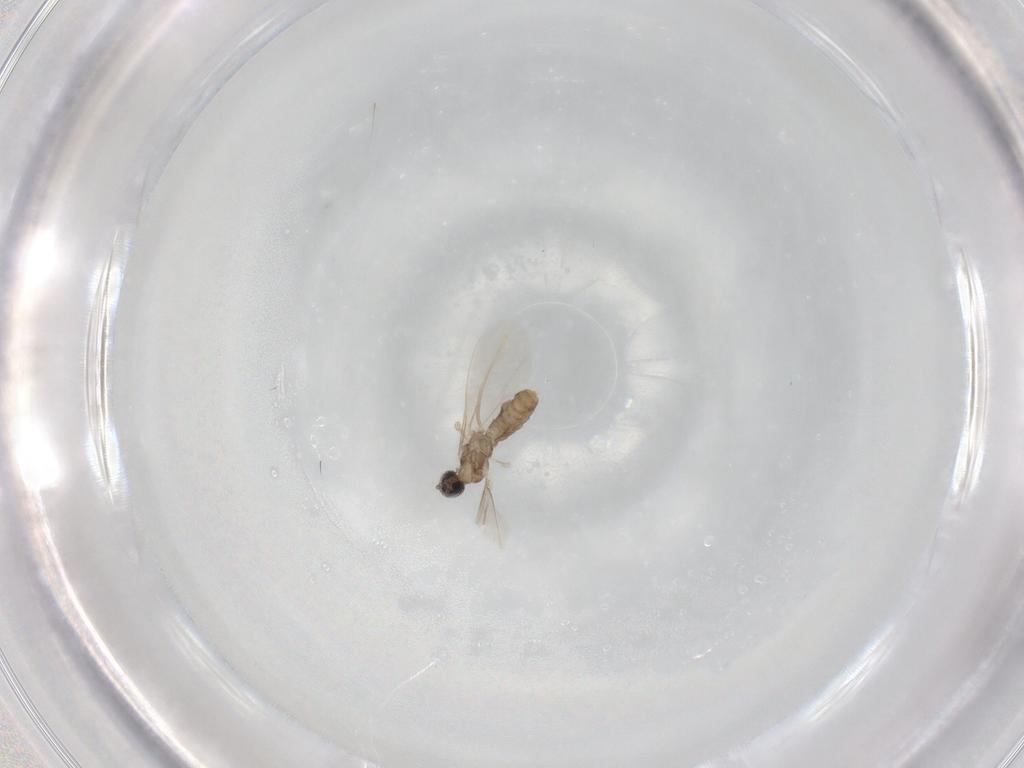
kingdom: Animalia
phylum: Arthropoda
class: Insecta
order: Diptera
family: Cecidomyiidae
